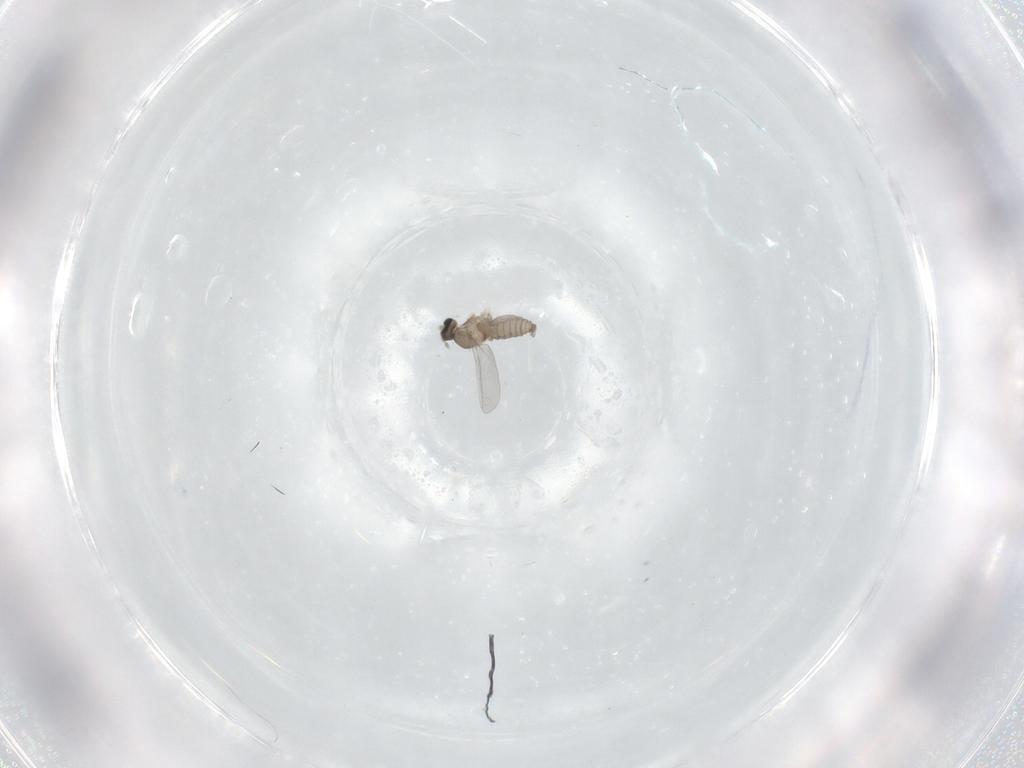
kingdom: Animalia
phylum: Arthropoda
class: Insecta
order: Diptera
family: Cecidomyiidae
